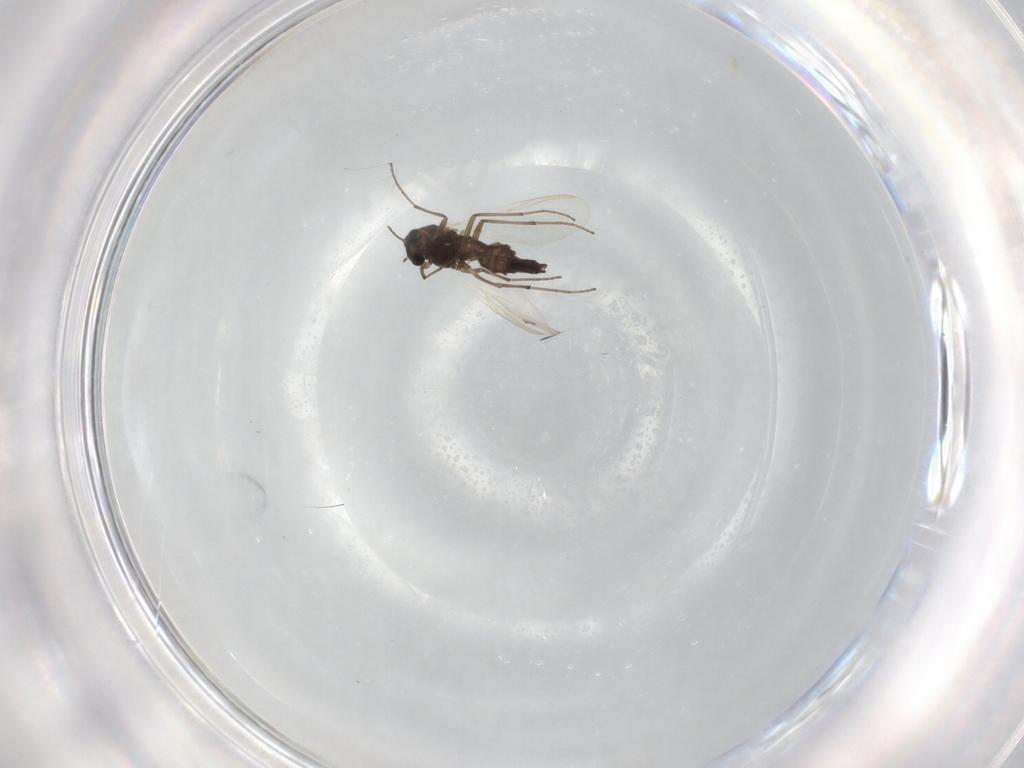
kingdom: Animalia
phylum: Arthropoda
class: Insecta
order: Diptera
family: Chironomidae
